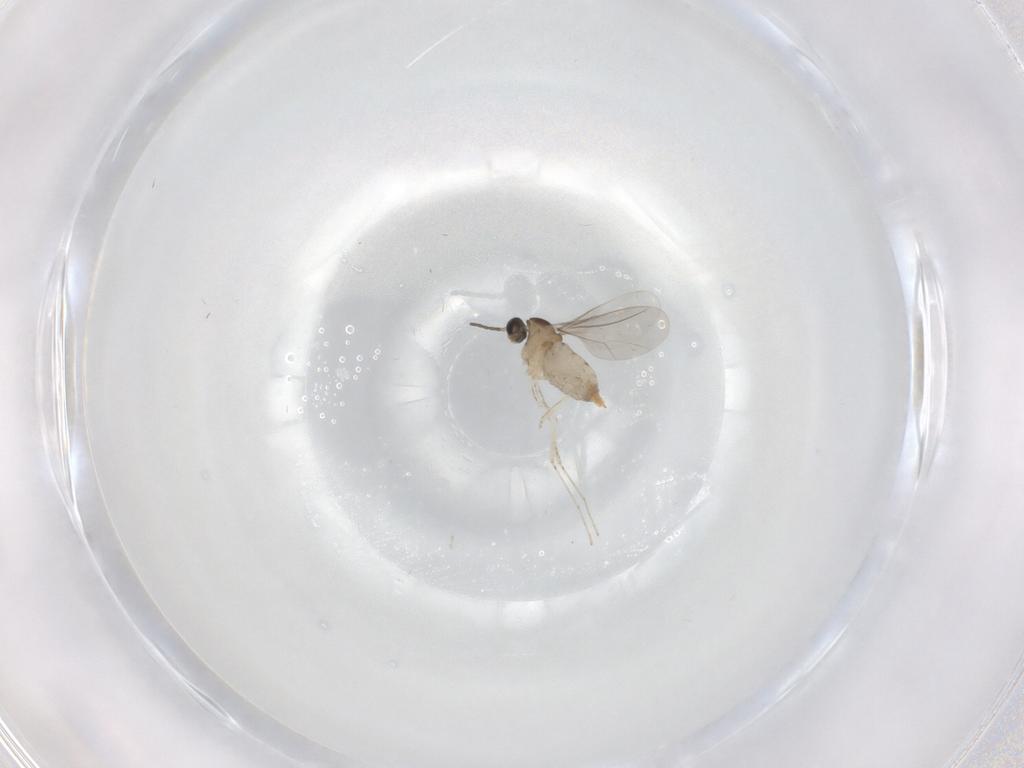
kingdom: Animalia
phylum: Arthropoda
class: Insecta
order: Diptera
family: Cecidomyiidae
